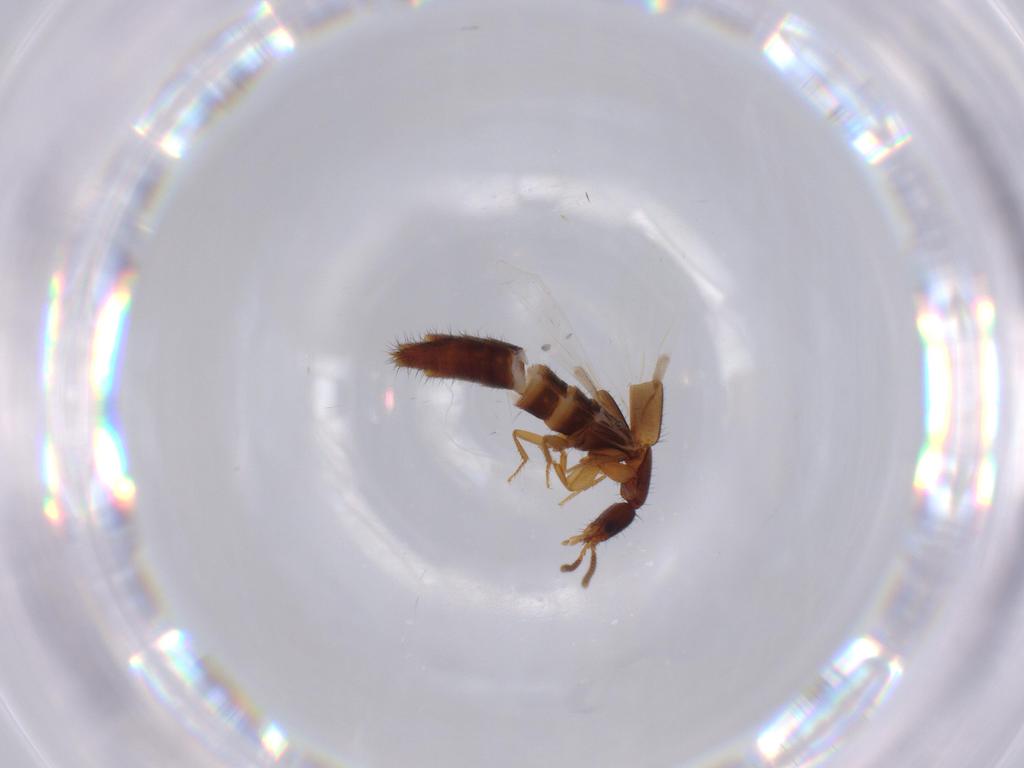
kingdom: Animalia
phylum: Arthropoda
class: Insecta
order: Coleoptera
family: Staphylinidae
